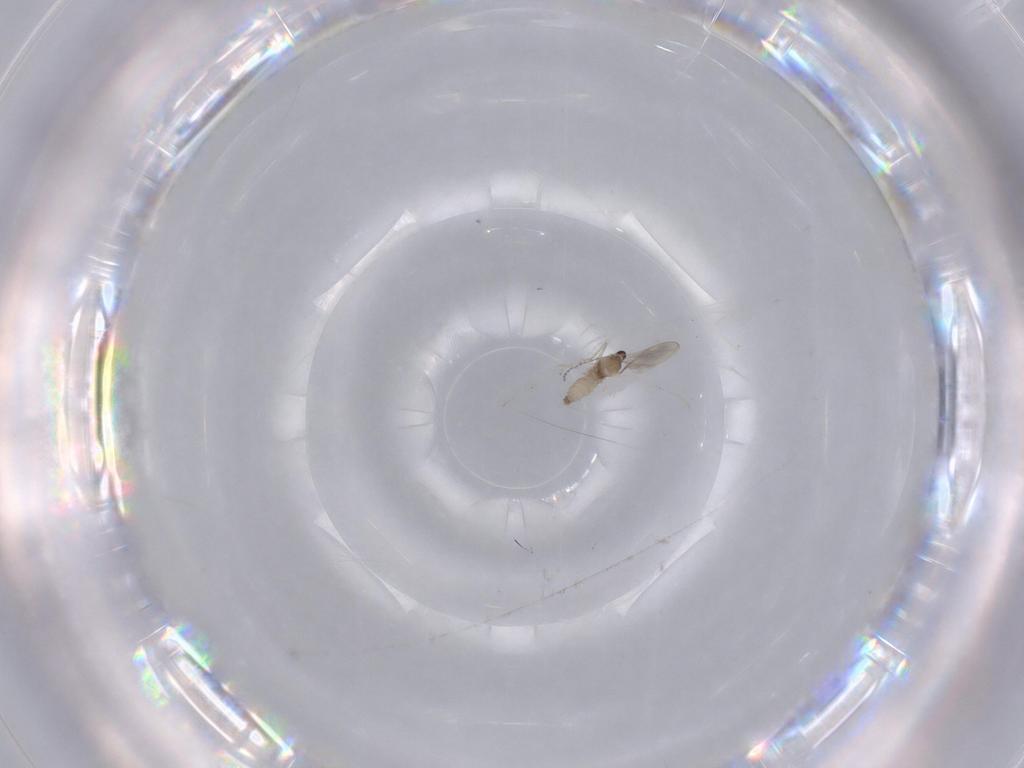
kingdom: Animalia
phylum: Arthropoda
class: Insecta
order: Diptera
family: Cecidomyiidae
